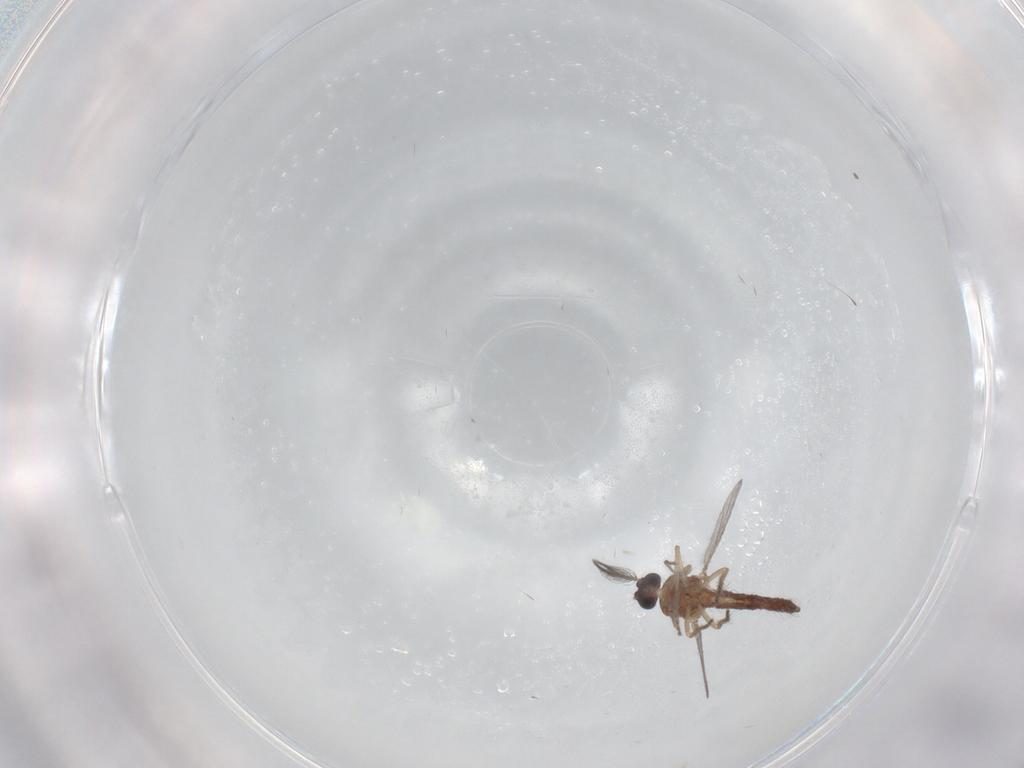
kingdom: Animalia
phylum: Arthropoda
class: Insecta
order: Diptera
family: Ceratopogonidae
